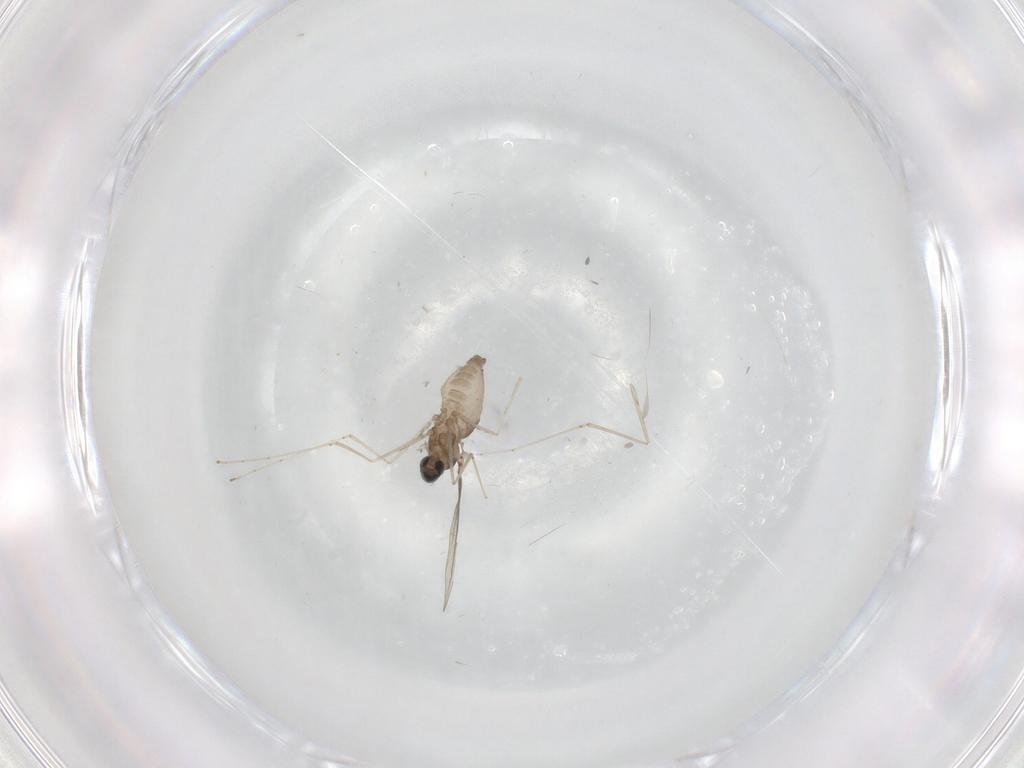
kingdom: Animalia
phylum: Arthropoda
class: Insecta
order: Diptera
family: Cecidomyiidae
